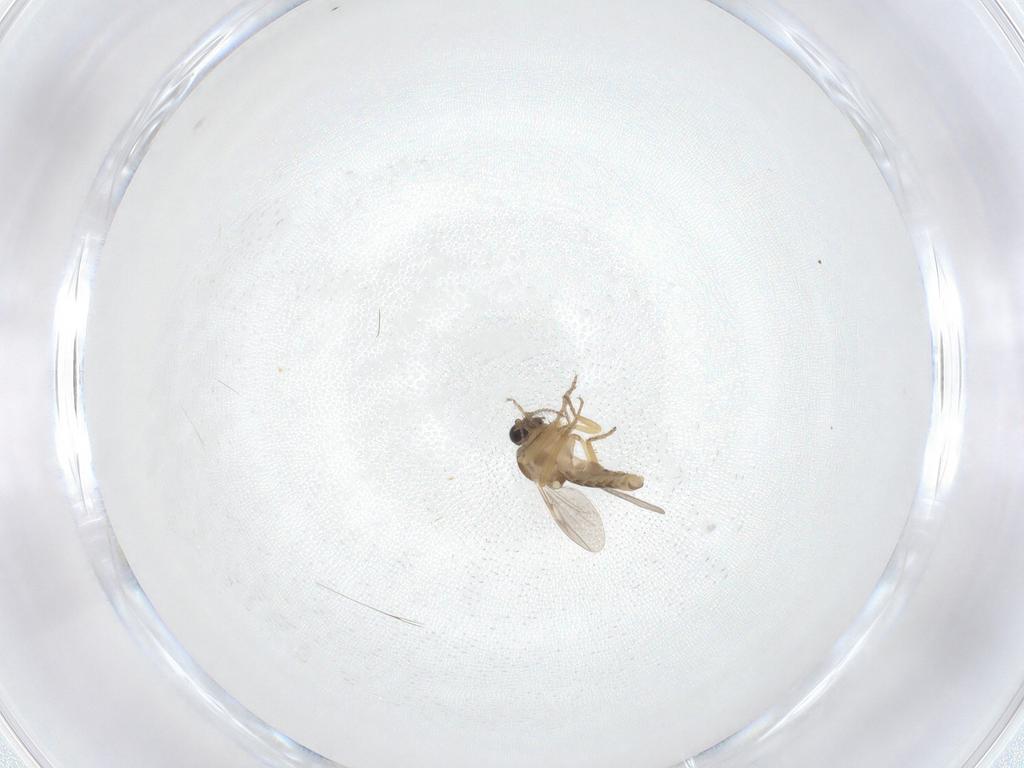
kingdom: Animalia
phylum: Arthropoda
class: Insecta
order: Diptera
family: Ceratopogonidae
